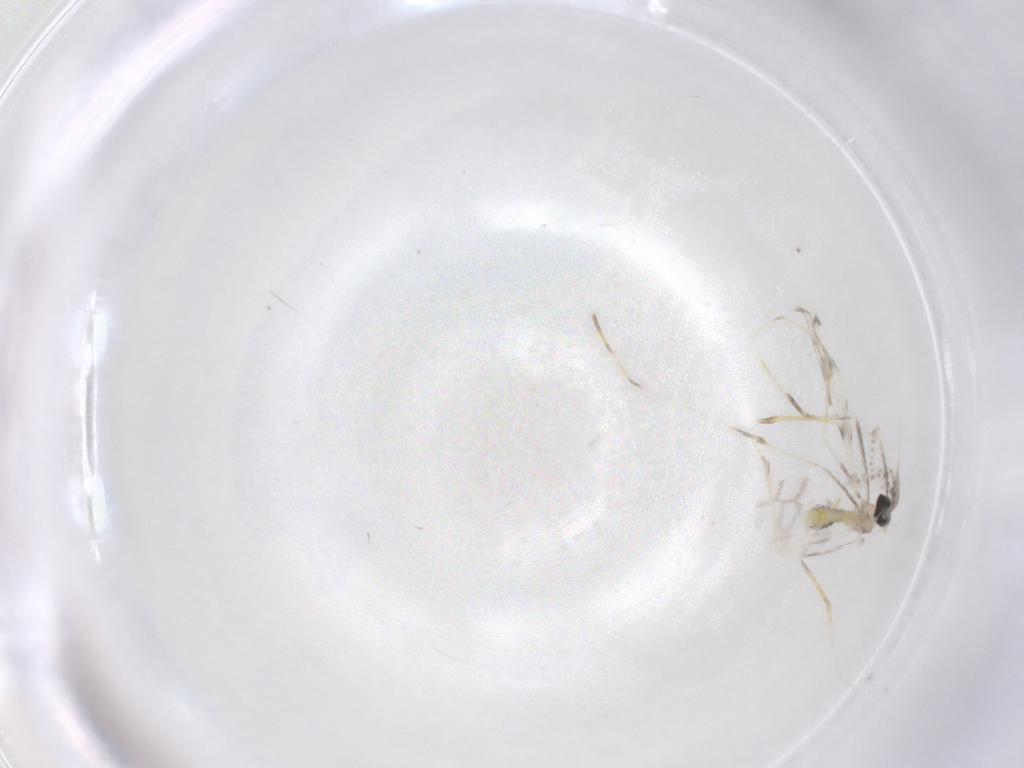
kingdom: Animalia
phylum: Arthropoda
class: Insecta
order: Diptera
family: Cecidomyiidae
